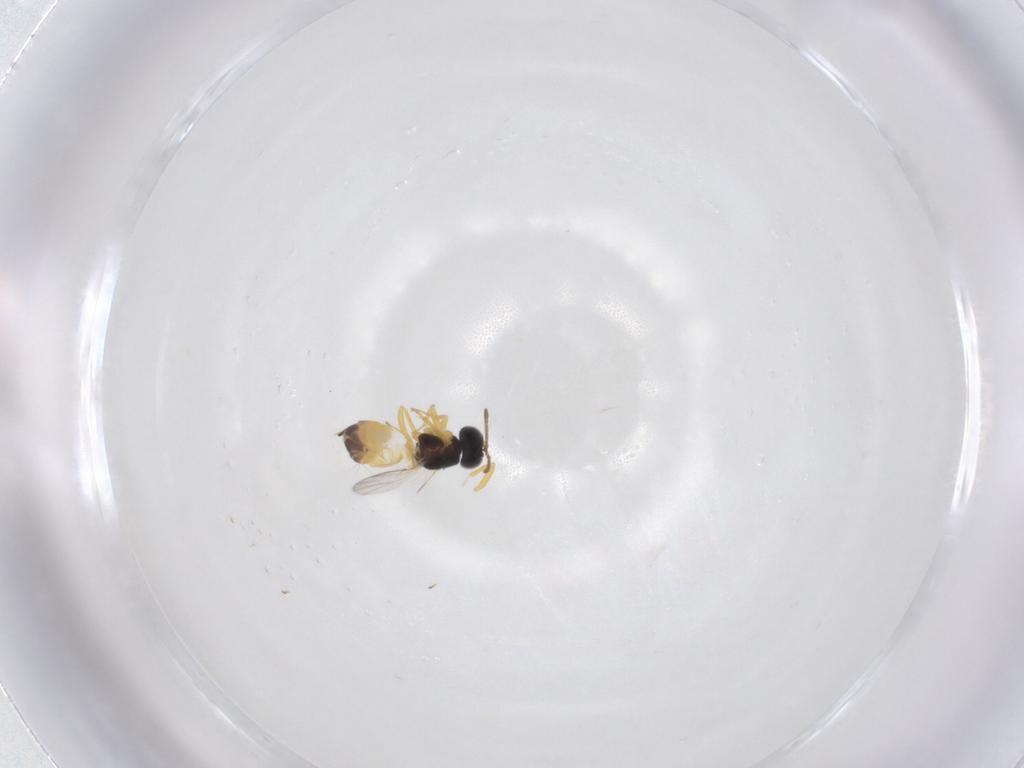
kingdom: Animalia
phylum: Arthropoda
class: Insecta
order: Hymenoptera
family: Encyrtidae
